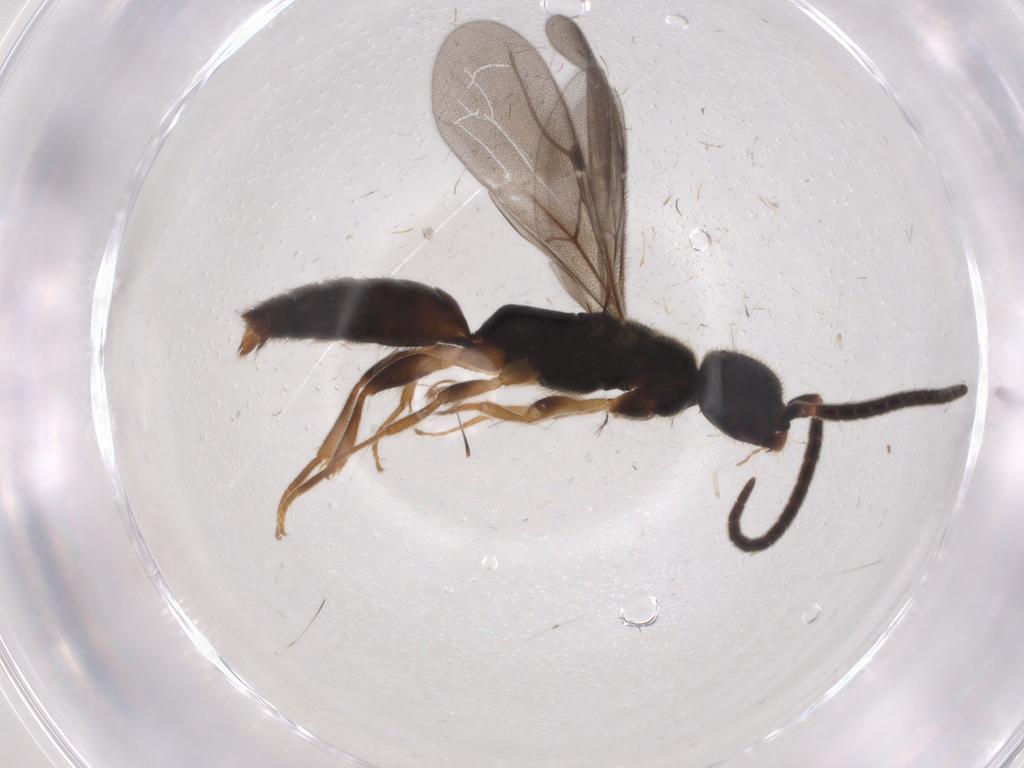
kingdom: Animalia
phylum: Arthropoda
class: Insecta
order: Hymenoptera
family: Bethylidae
